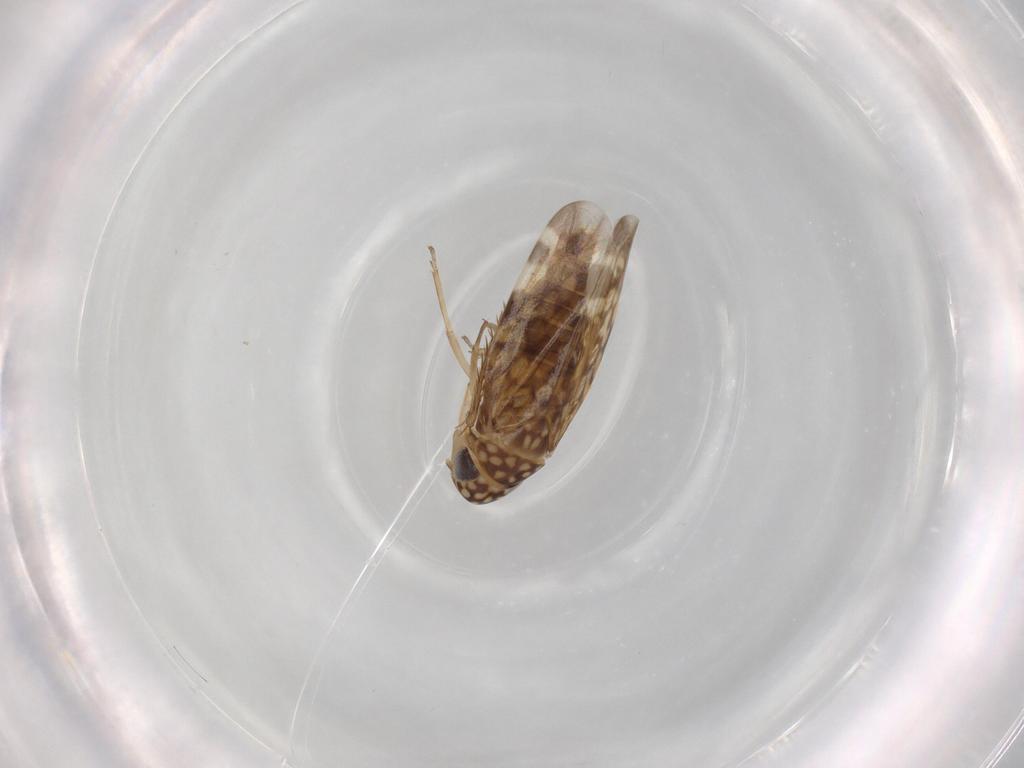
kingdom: Animalia
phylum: Arthropoda
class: Insecta
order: Hemiptera
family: Cicadellidae
